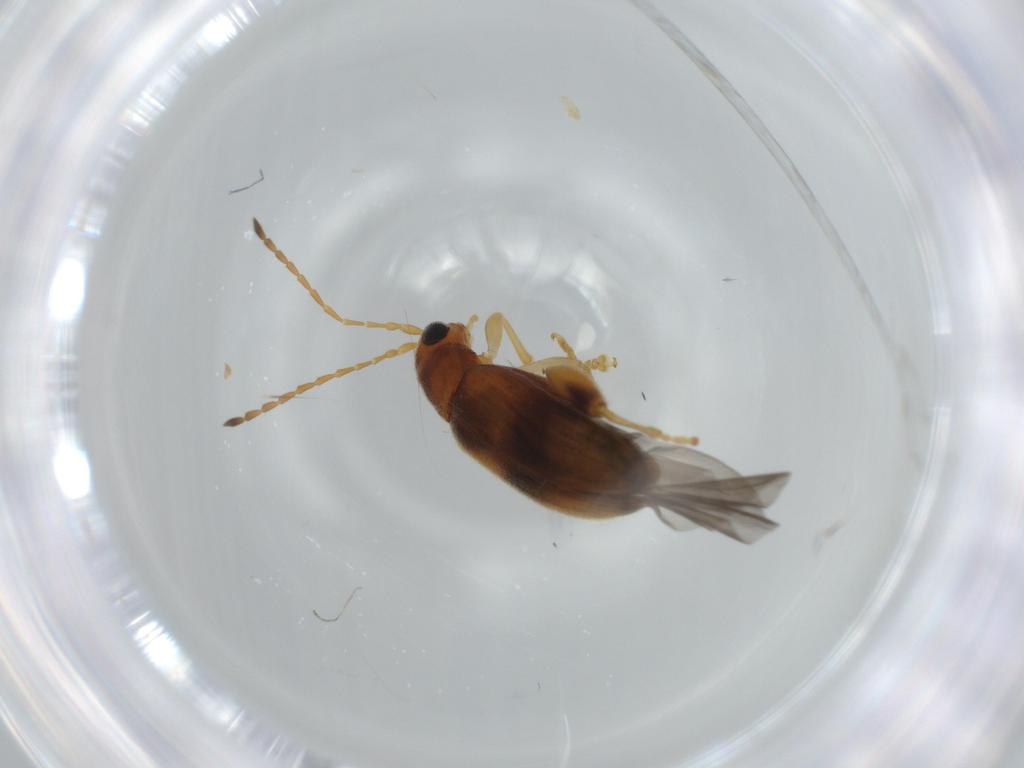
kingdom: Animalia
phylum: Arthropoda
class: Insecta
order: Coleoptera
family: Chrysomelidae
